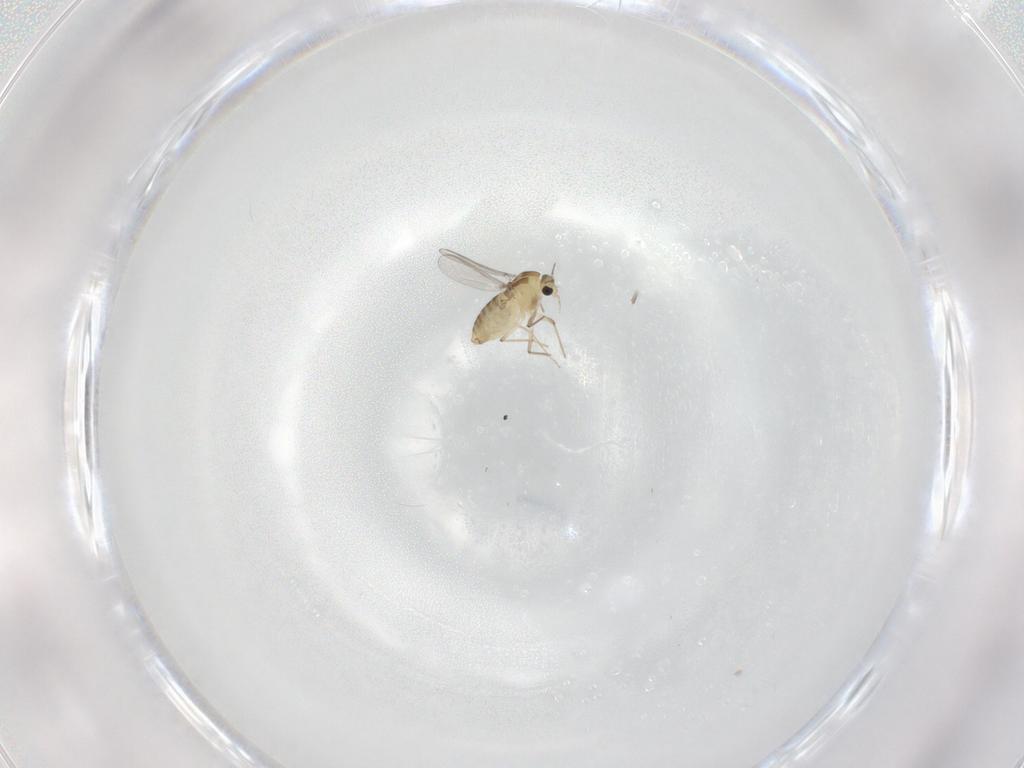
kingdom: Animalia
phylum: Arthropoda
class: Insecta
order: Diptera
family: Chironomidae
